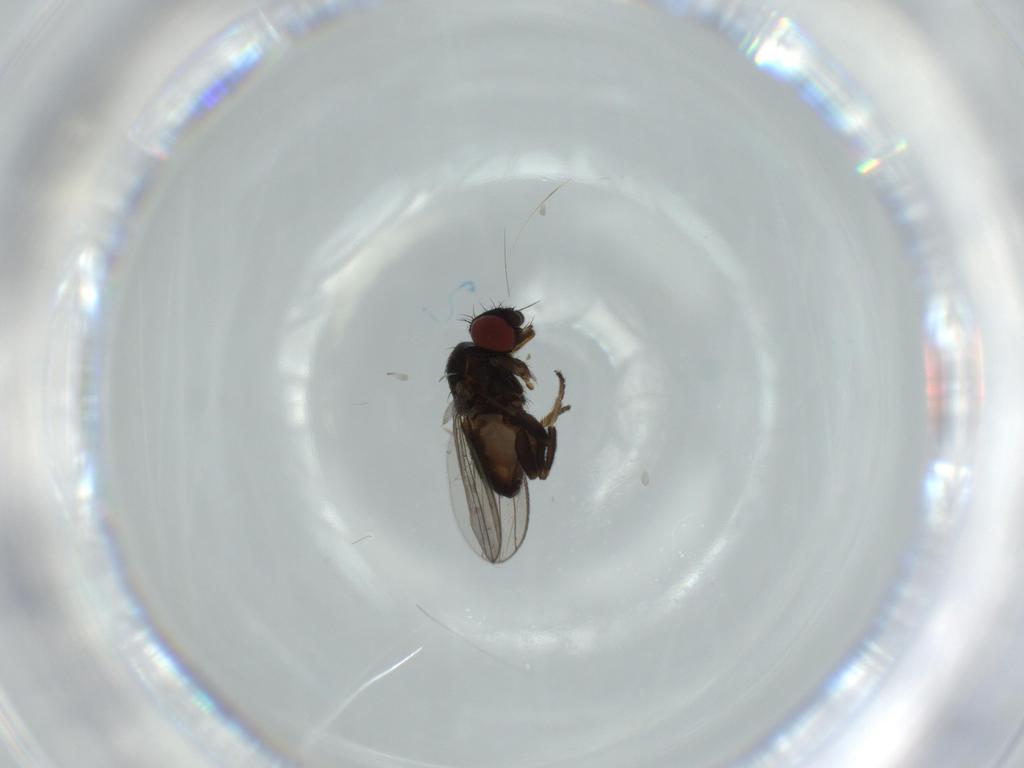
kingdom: Animalia
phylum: Arthropoda
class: Insecta
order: Diptera
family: Milichiidae
